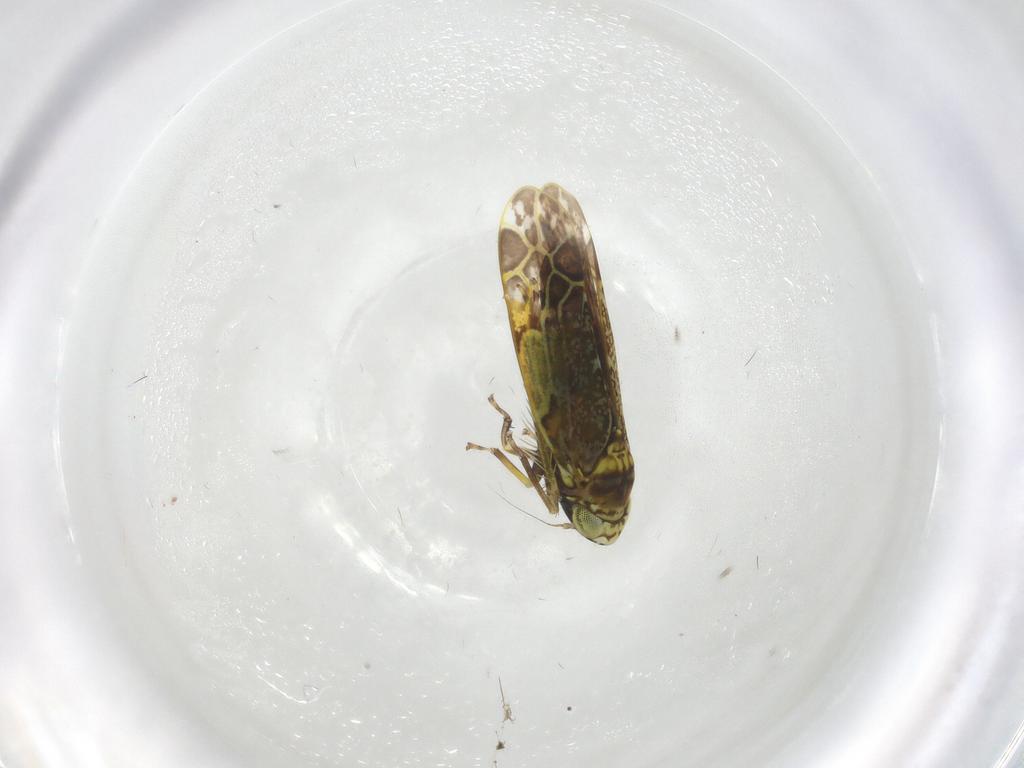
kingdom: Animalia
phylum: Arthropoda
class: Insecta
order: Hemiptera
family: Cicadellidae
